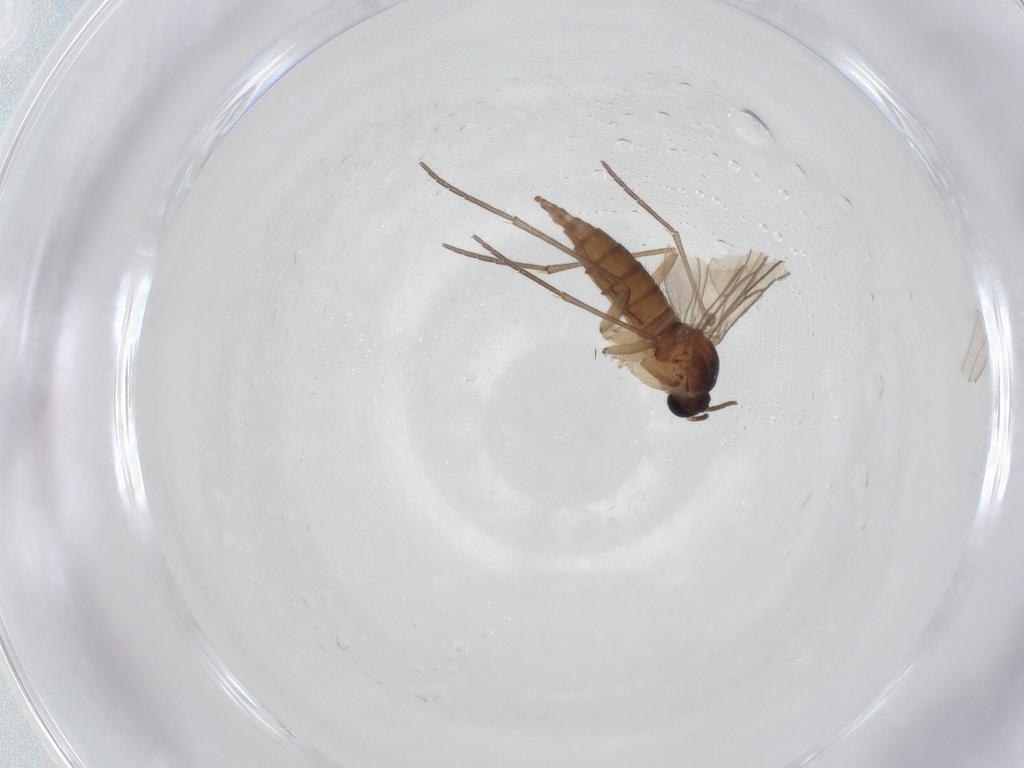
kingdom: Animalia
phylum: Arthropoda
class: Insecta
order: Diptera
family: Sciaridae
